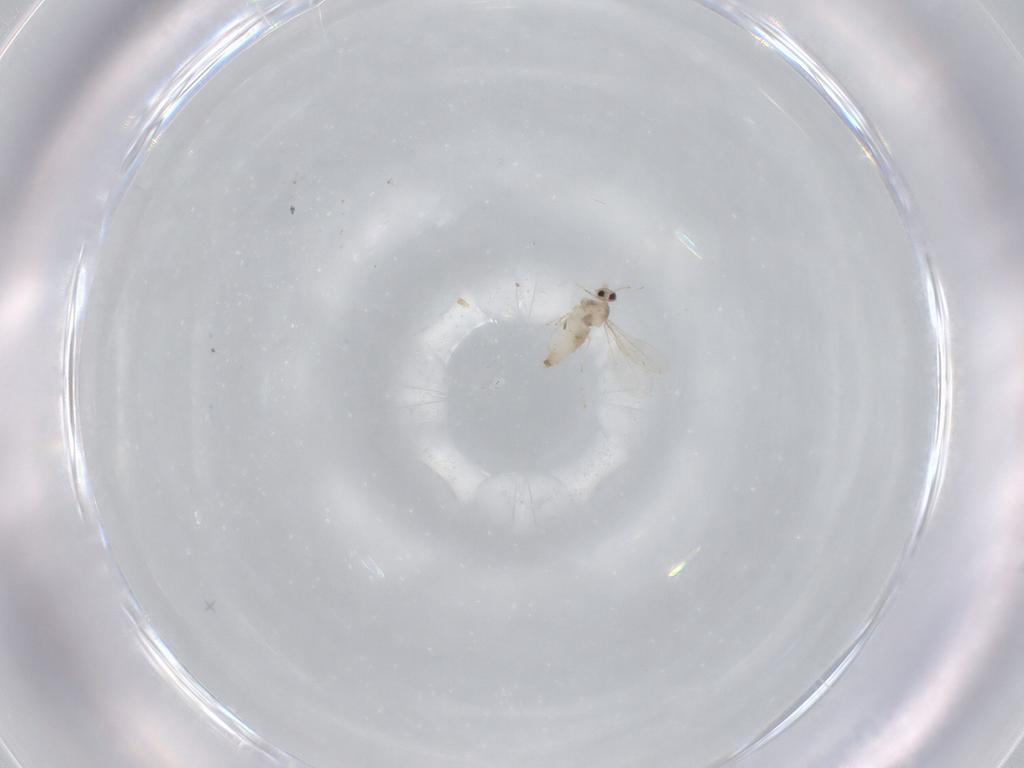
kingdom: Animalia
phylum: Arthropoda
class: Insecta
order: Diptera
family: Cecidomyiidae
